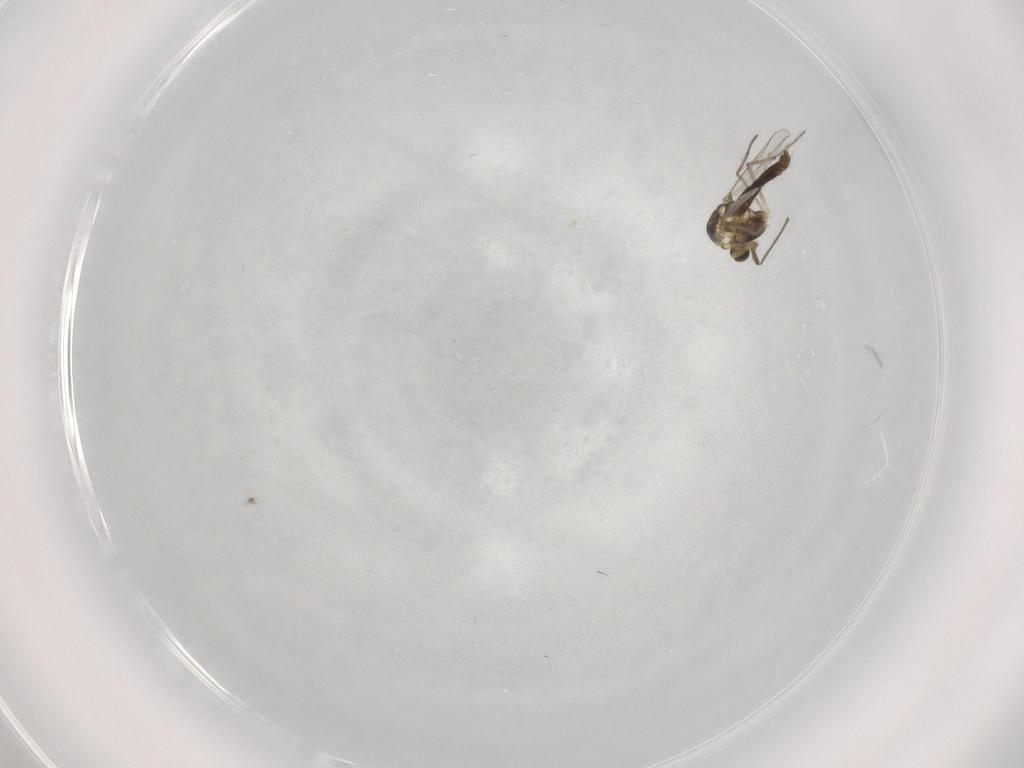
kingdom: Animalia
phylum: Arthropoda
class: Insecta
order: Diptera
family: Chironomidae
